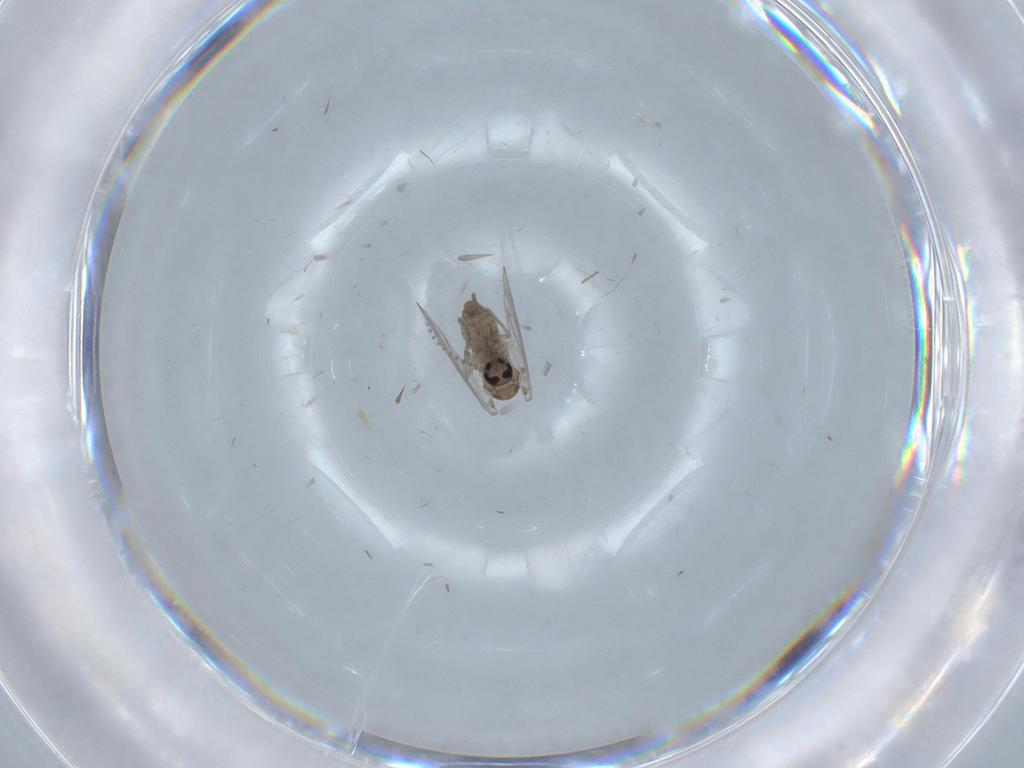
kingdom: Animalia
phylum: Arthropoda
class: Insecta
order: Diptera
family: Psychodidae
